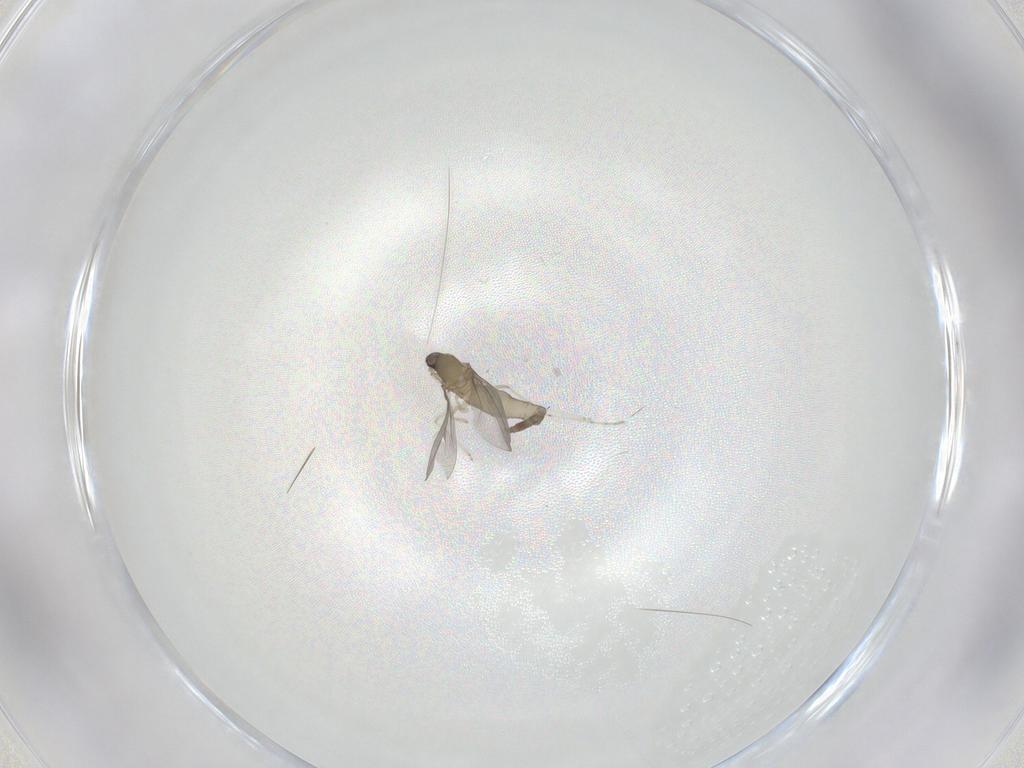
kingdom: Animalia
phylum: Arthropoda
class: Insecta
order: Diptera
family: Cecidomyiidae
